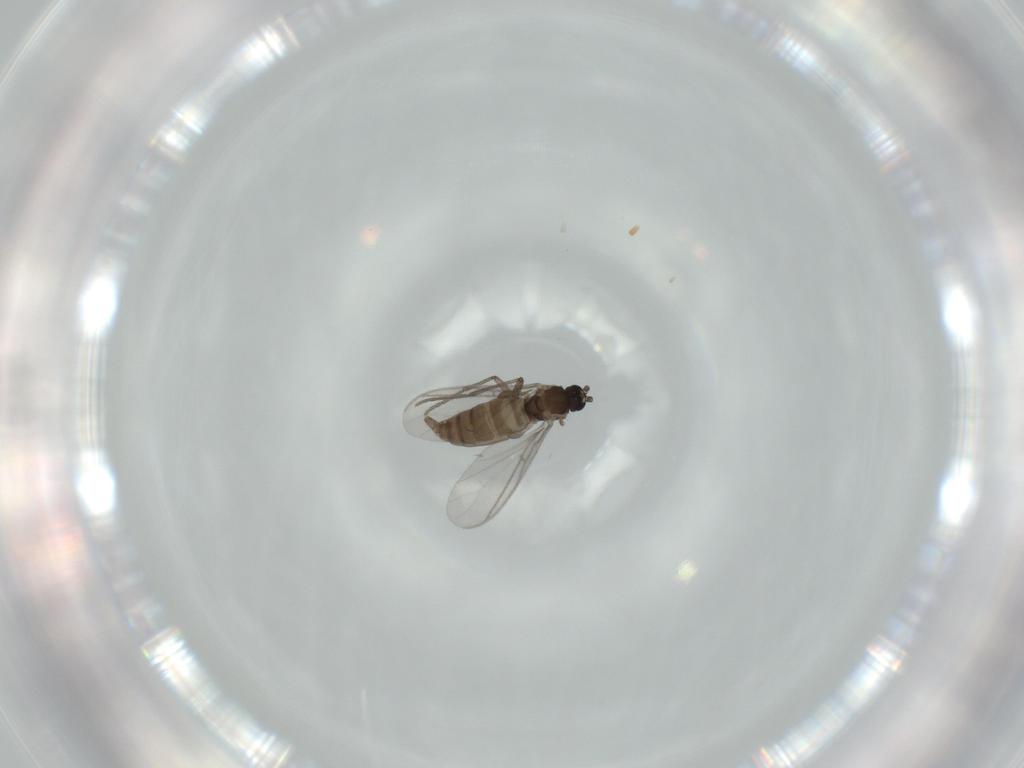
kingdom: Animalia
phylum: Arthropoda
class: Insecta
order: Diptera
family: Sciaridae
